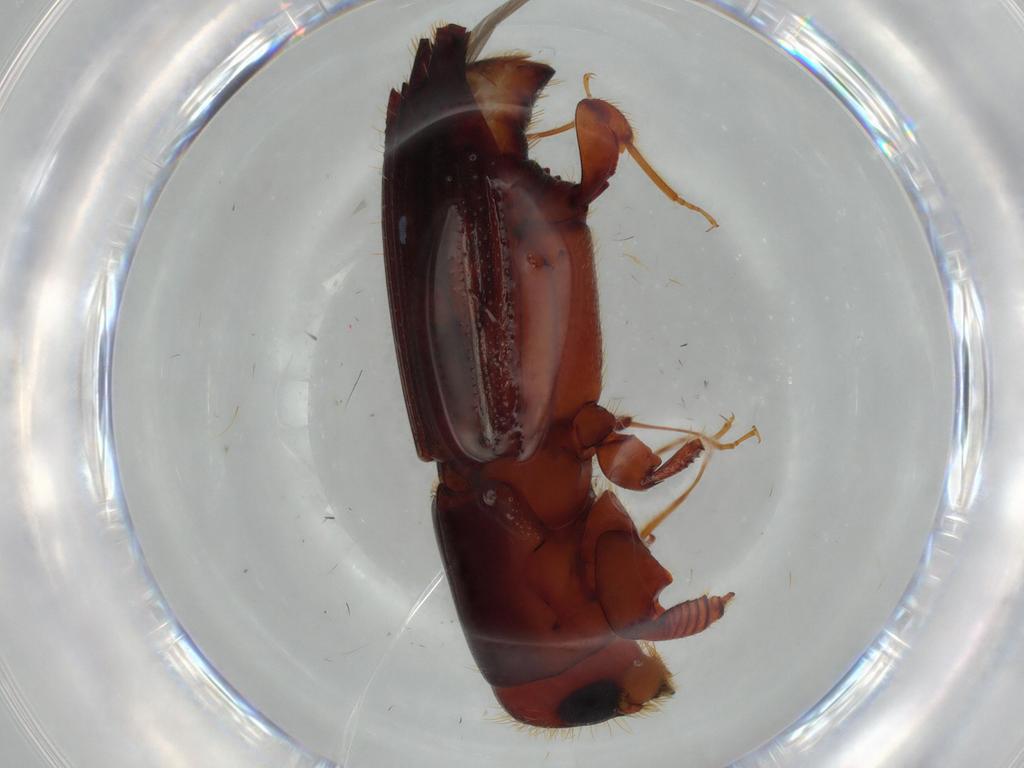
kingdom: Animalia
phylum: Arthropoda
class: Insecta
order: Coleoptera
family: Curculionidae
